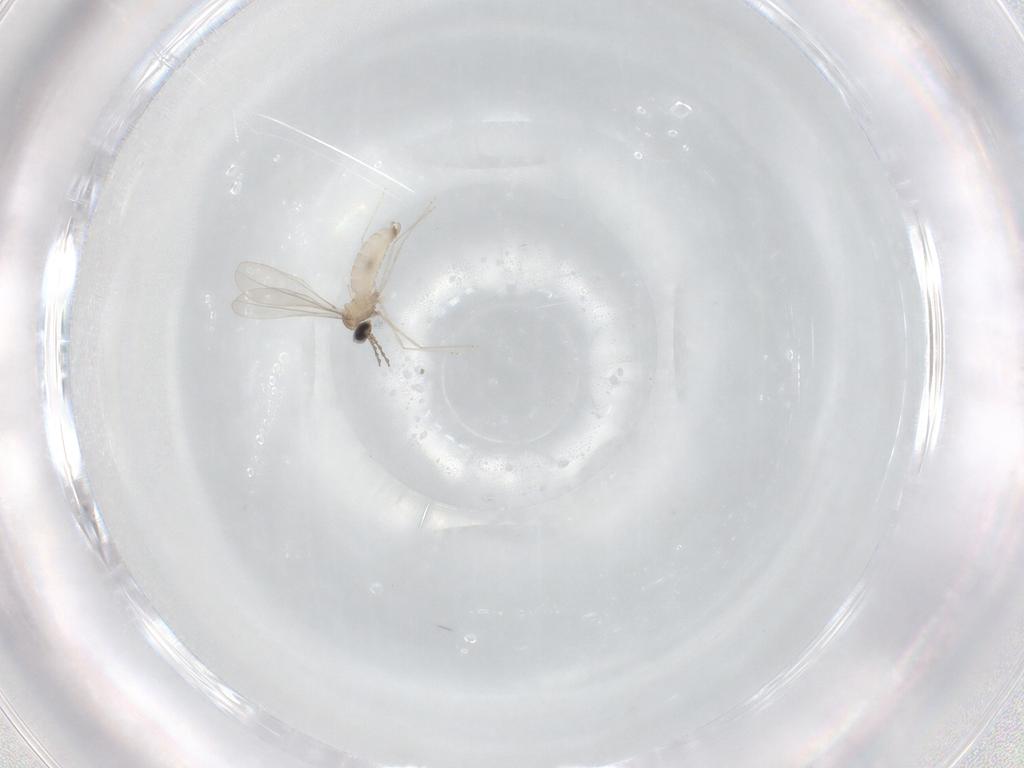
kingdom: Animalia
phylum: Arthropoda
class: Insecta
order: Diptera
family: Cecidomyiidae
